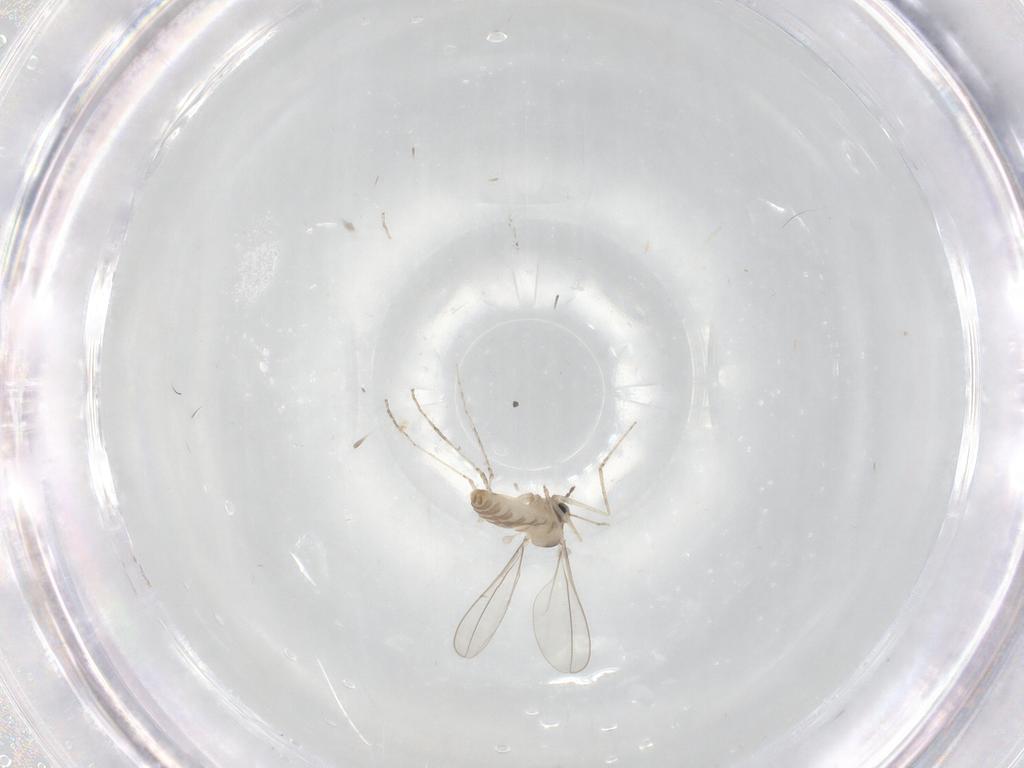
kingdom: Animalia
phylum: Arthropoda
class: Insecta
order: Diptera
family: Drosophilidae
